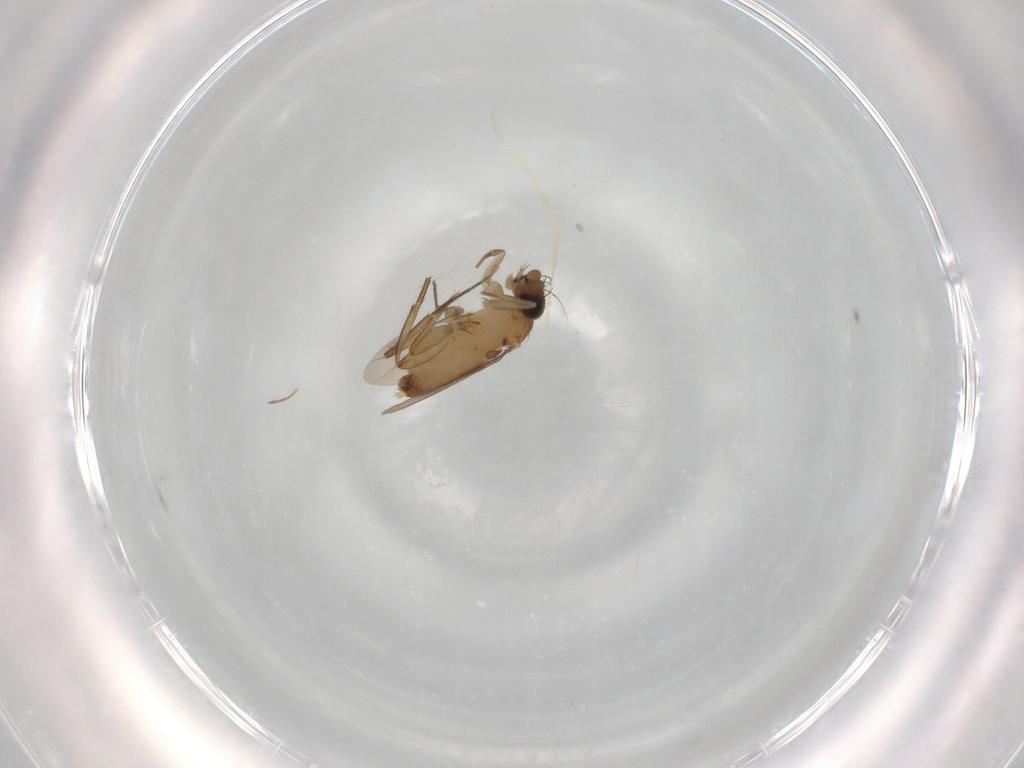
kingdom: Animalia
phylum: Arthropoda
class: Insecta
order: Diptera
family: Phoridae
